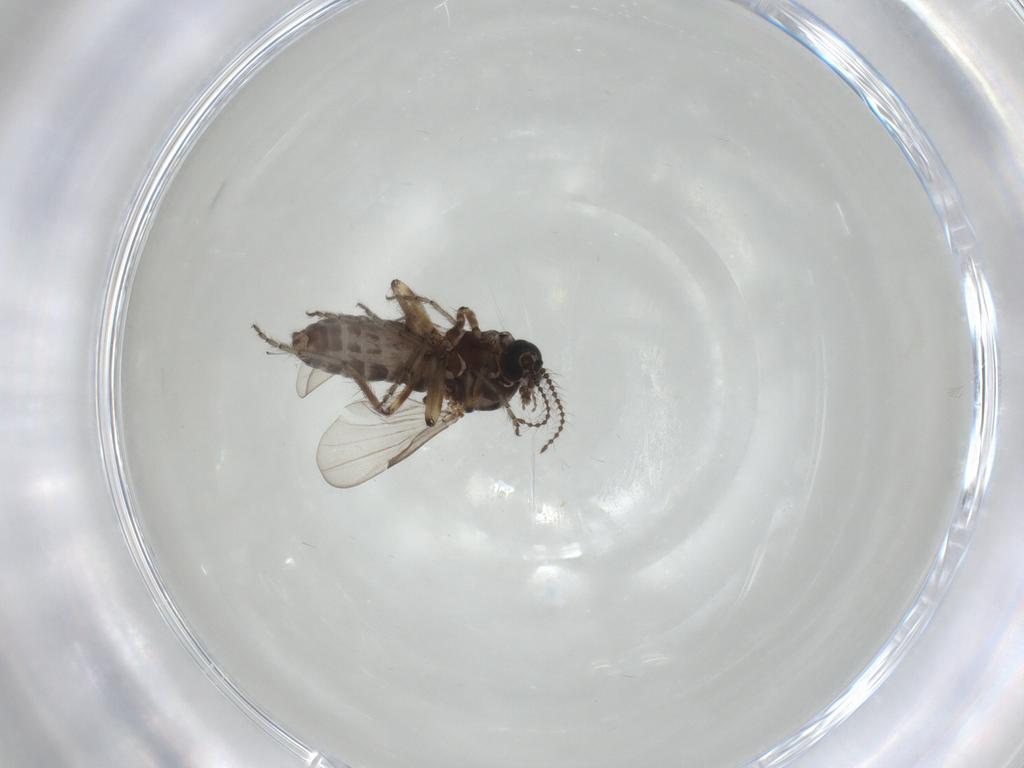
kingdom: Animalia
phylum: Arthropoda
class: Insecta
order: Diptera
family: Ceratopogonidae
